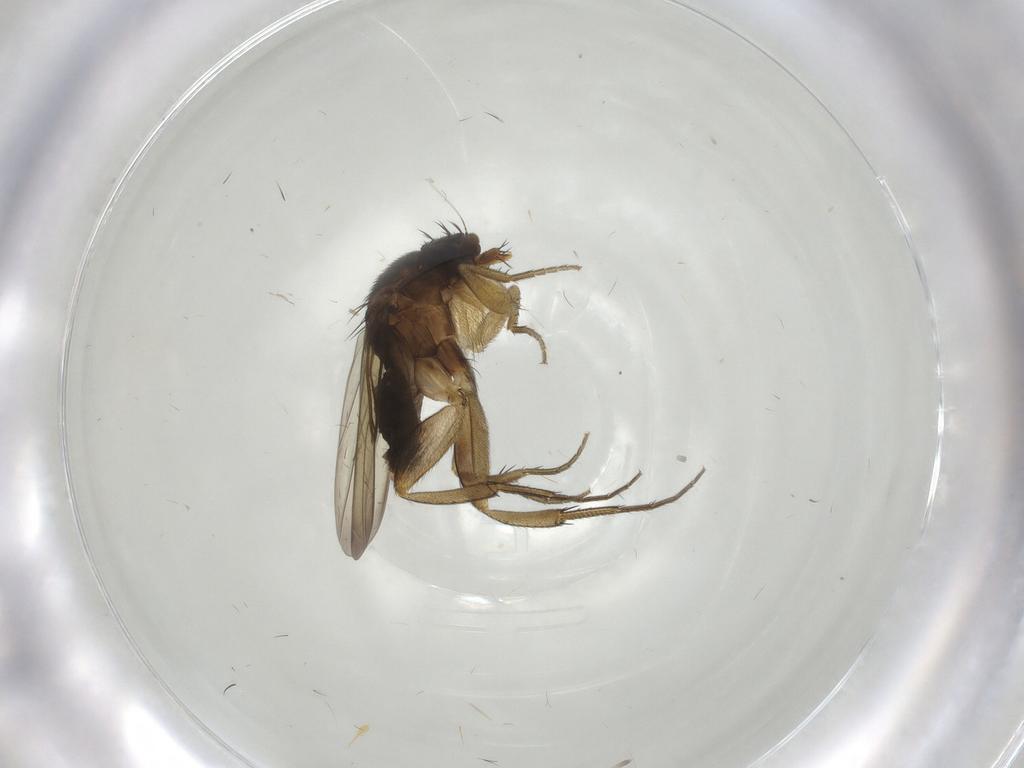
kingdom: Animalia
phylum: Arthropoda
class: Insecta
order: Diptera
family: Phoridae
